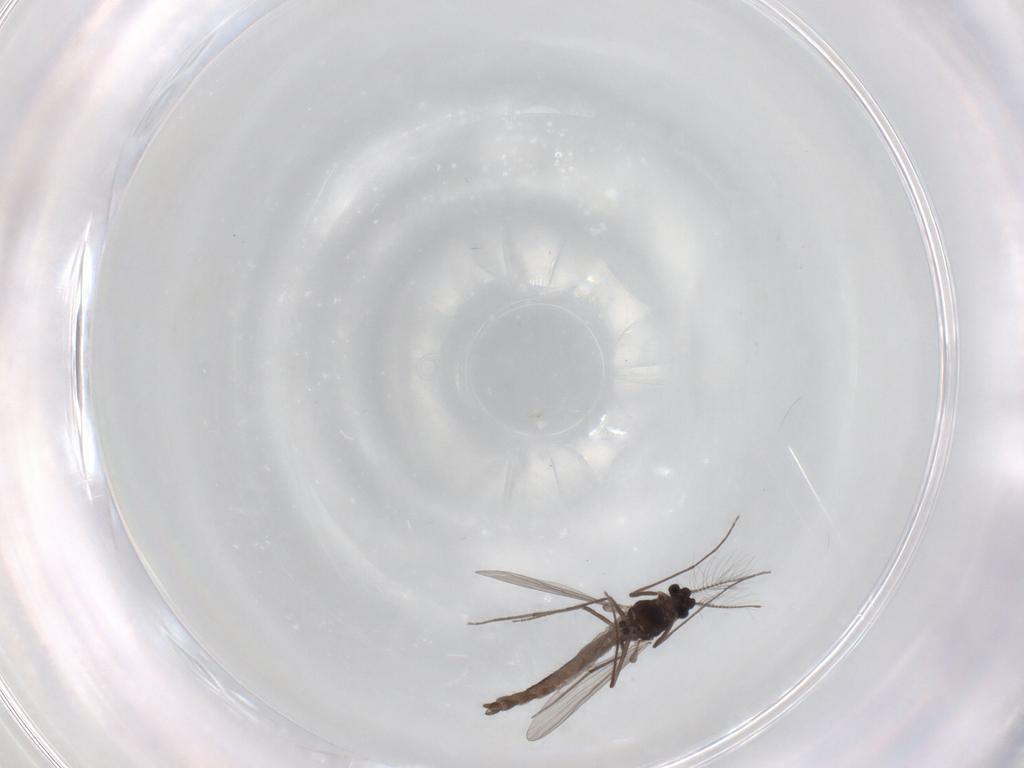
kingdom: Animalia
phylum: Arthropoda
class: Insecta
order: Diptera
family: Chironomidae
